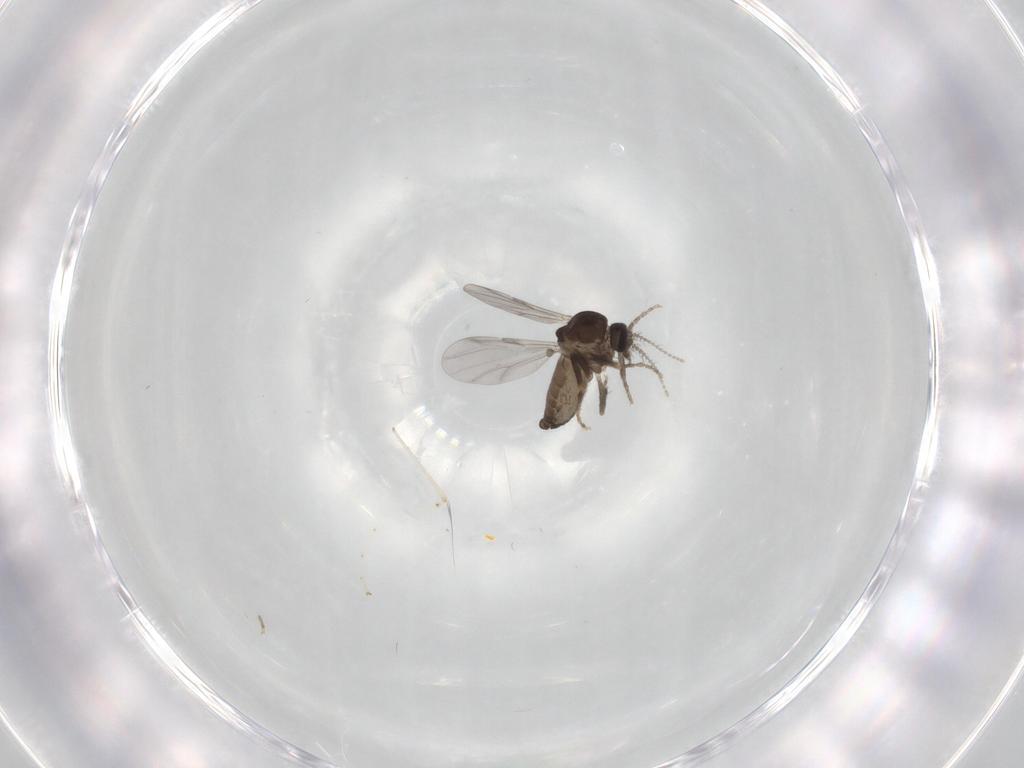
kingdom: Animalia
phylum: Arthropoda
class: Insecta
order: Diptera
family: Ceratopogonidae
